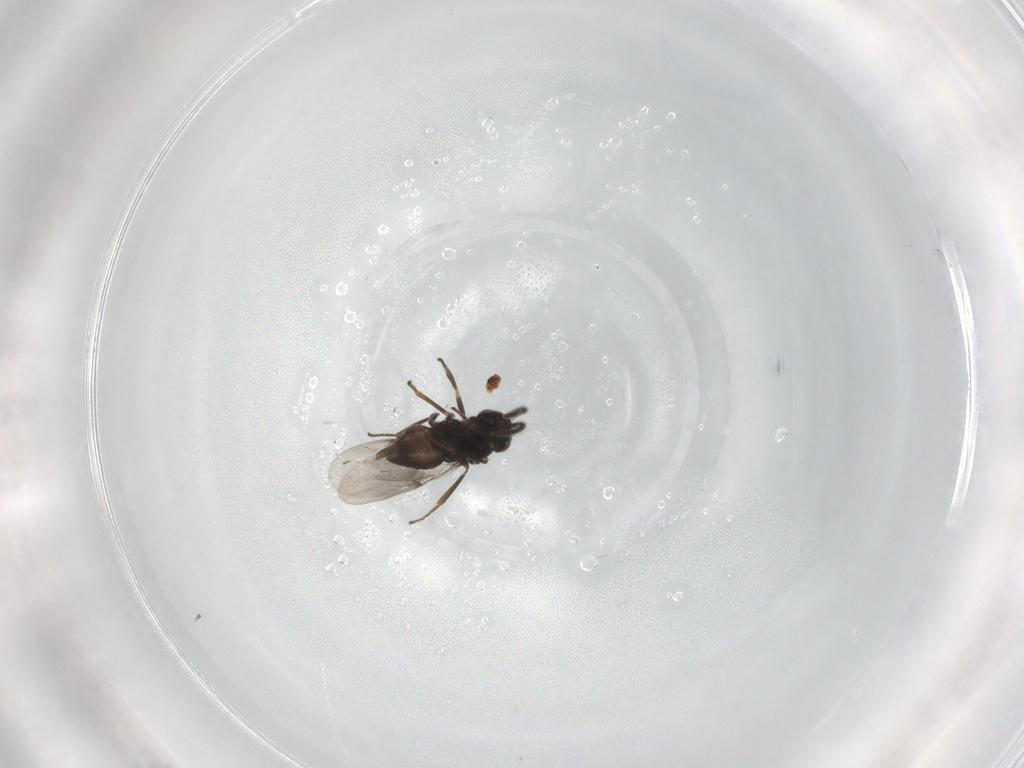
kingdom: Animalia
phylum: Arthropoda
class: Insecta
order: Hymenoptera
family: Encyrtidae
